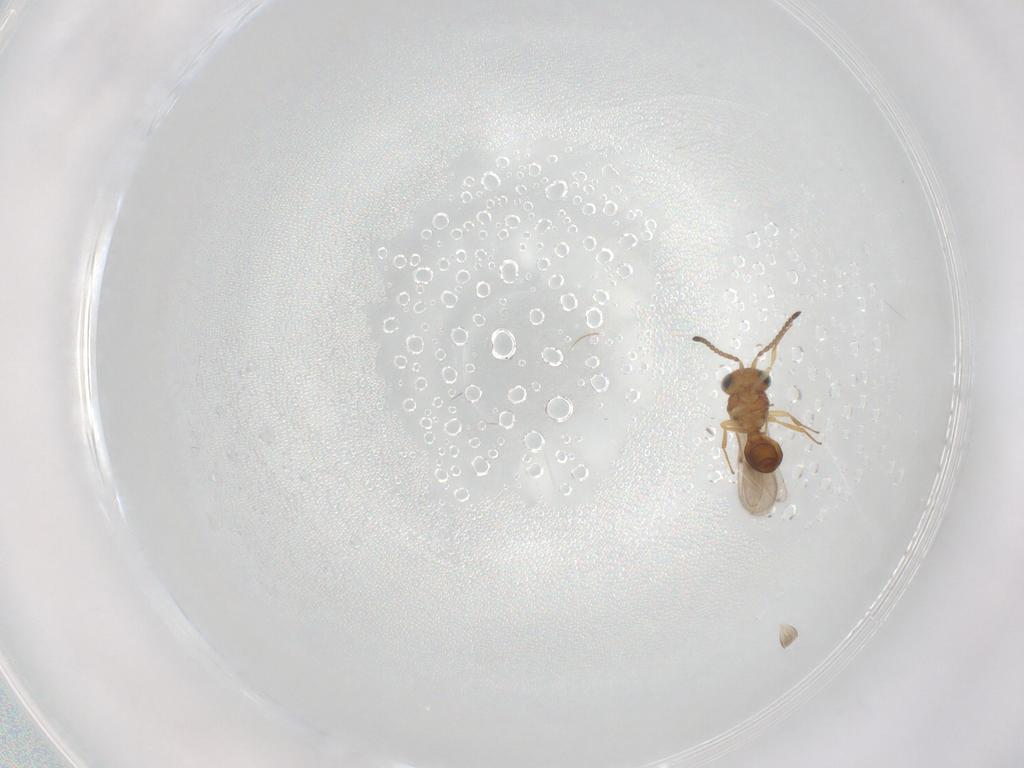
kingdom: Animalia
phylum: Arthropoda
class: Insecta
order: Hymenoptera
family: Scelionidae
